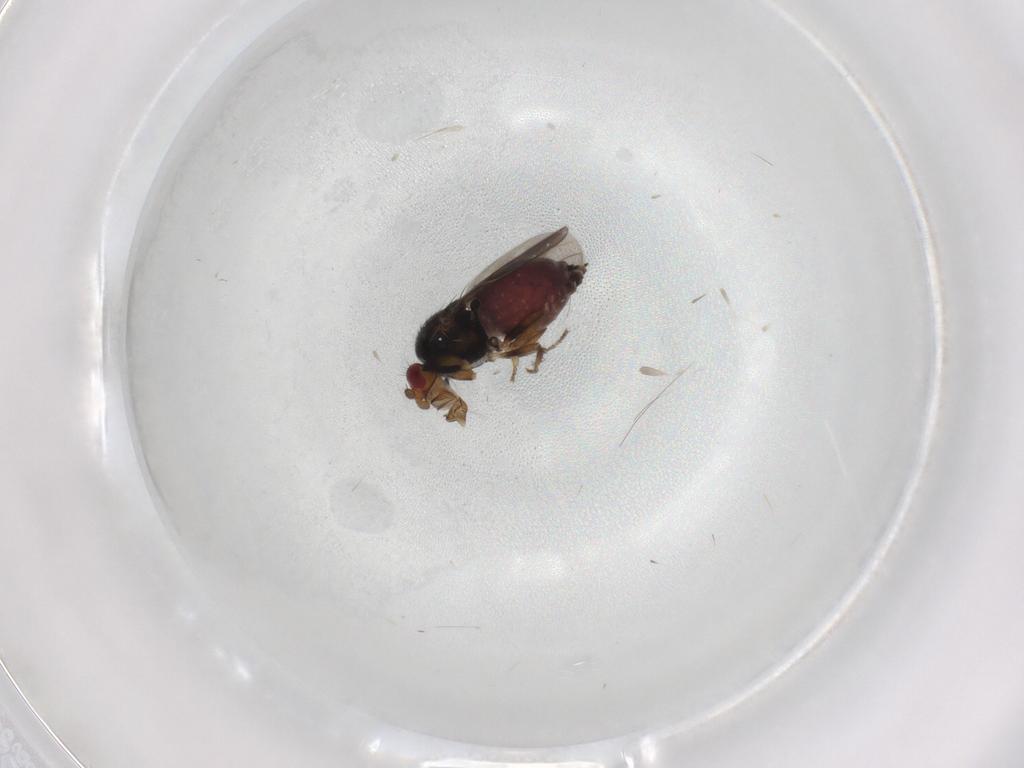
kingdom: Animalia
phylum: Arthropoda
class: Insecta
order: Diptera
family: Sphaeroceridae
